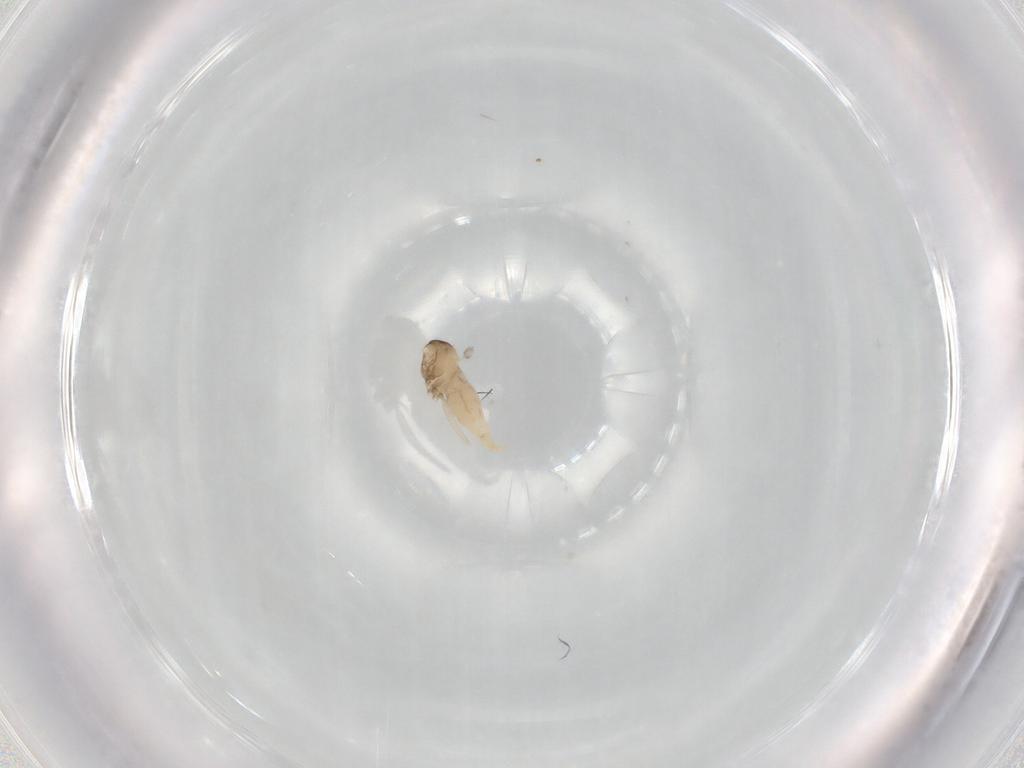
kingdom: Animalia
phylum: Arthropoda
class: Insecta
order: Diptera
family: Cecidomyiidae
